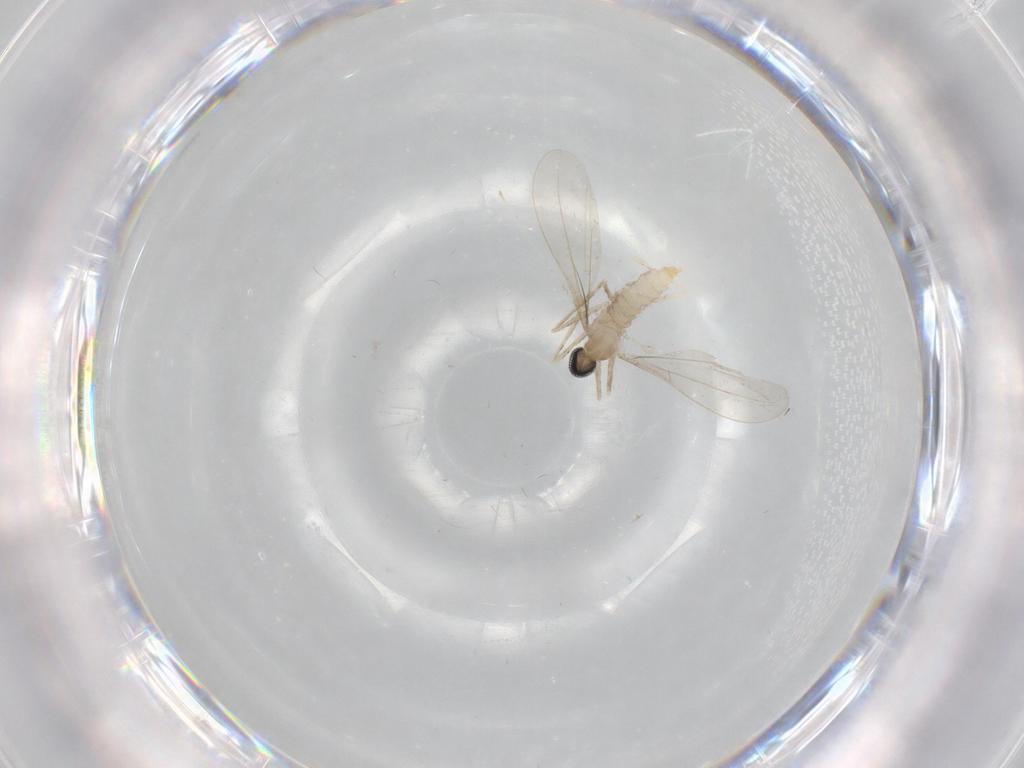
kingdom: Animalia
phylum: Arthropoda
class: Insecta
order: Diptera
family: Cecidomyiidae
